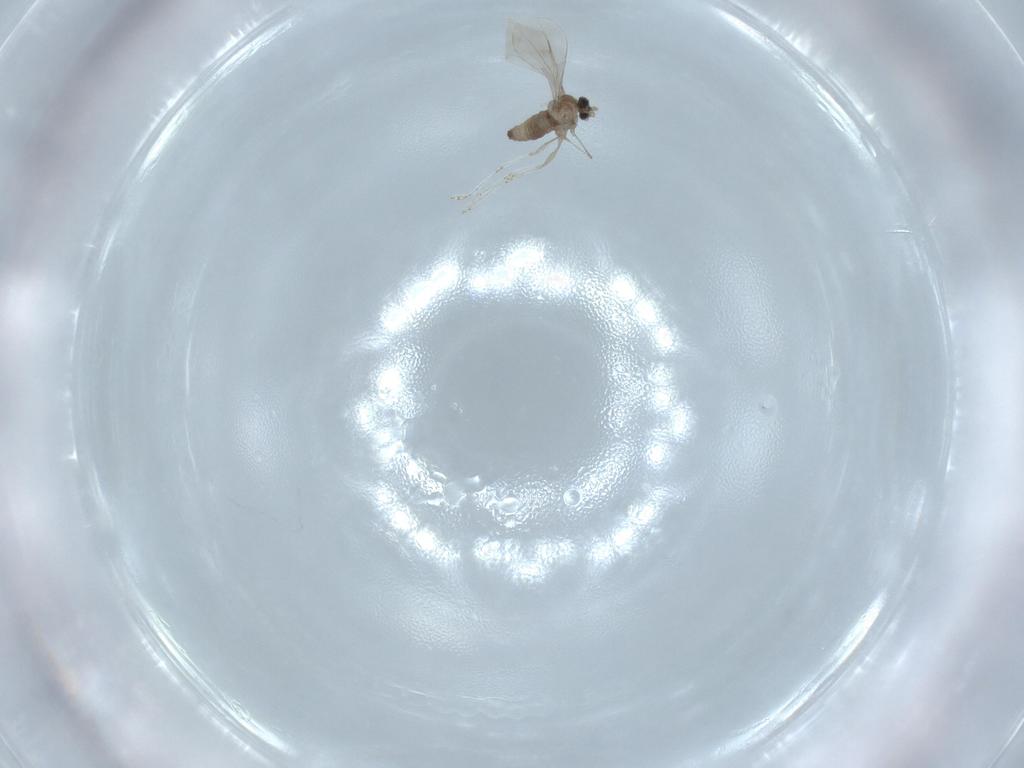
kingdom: Animalia
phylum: Arthropoda
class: Insecta
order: Diptera
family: Cecidomyiidae
